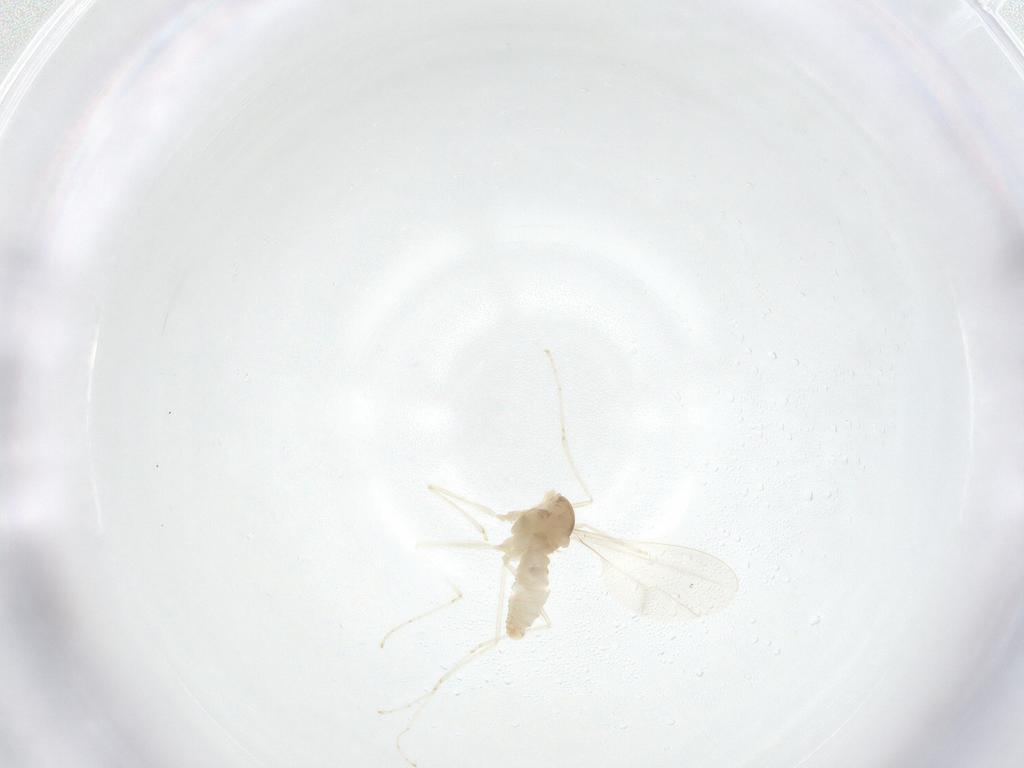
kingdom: Animalia
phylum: Arthropoda
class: Insecta
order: Diptera
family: Cecidomyiidae
